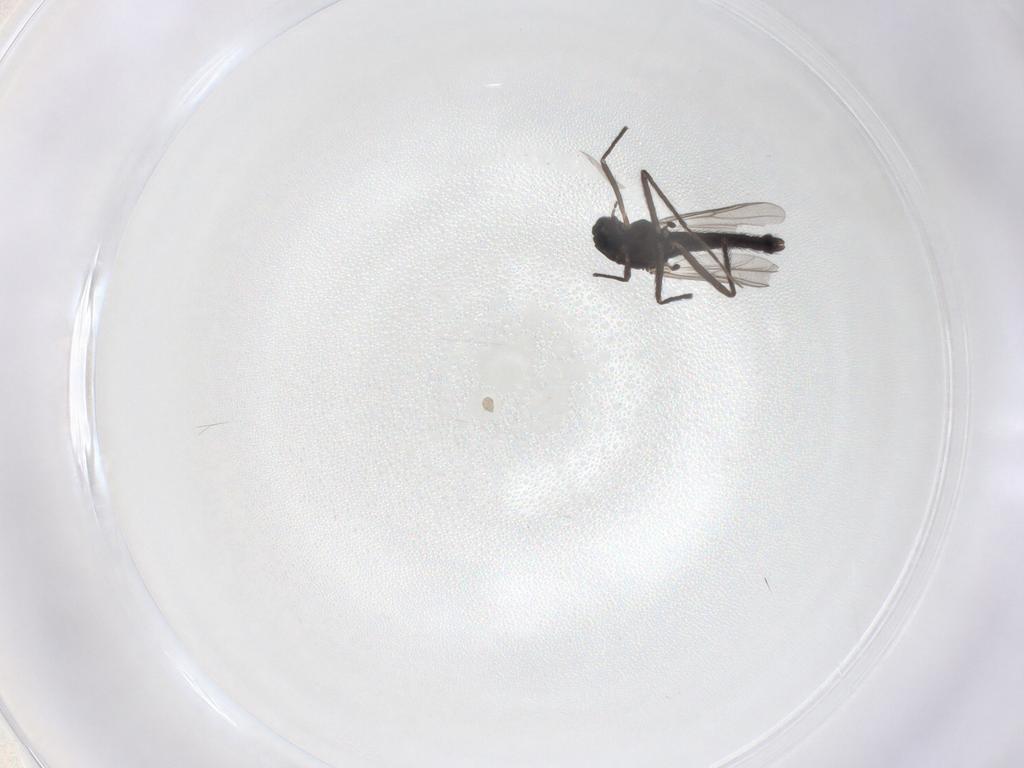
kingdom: Animalia
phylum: Arthropoda
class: Insecta
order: Diptera
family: Chironomidae
